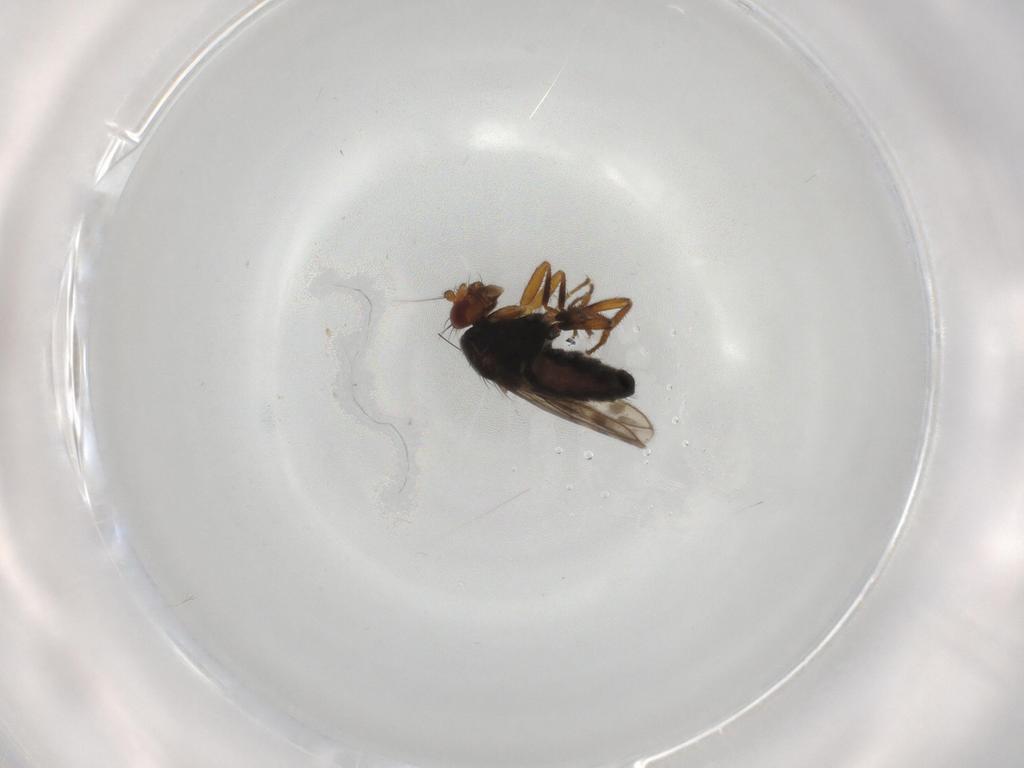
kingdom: Animalia
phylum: Arthropoda
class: Insecta
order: Diptera
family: Sphaeroceridae
